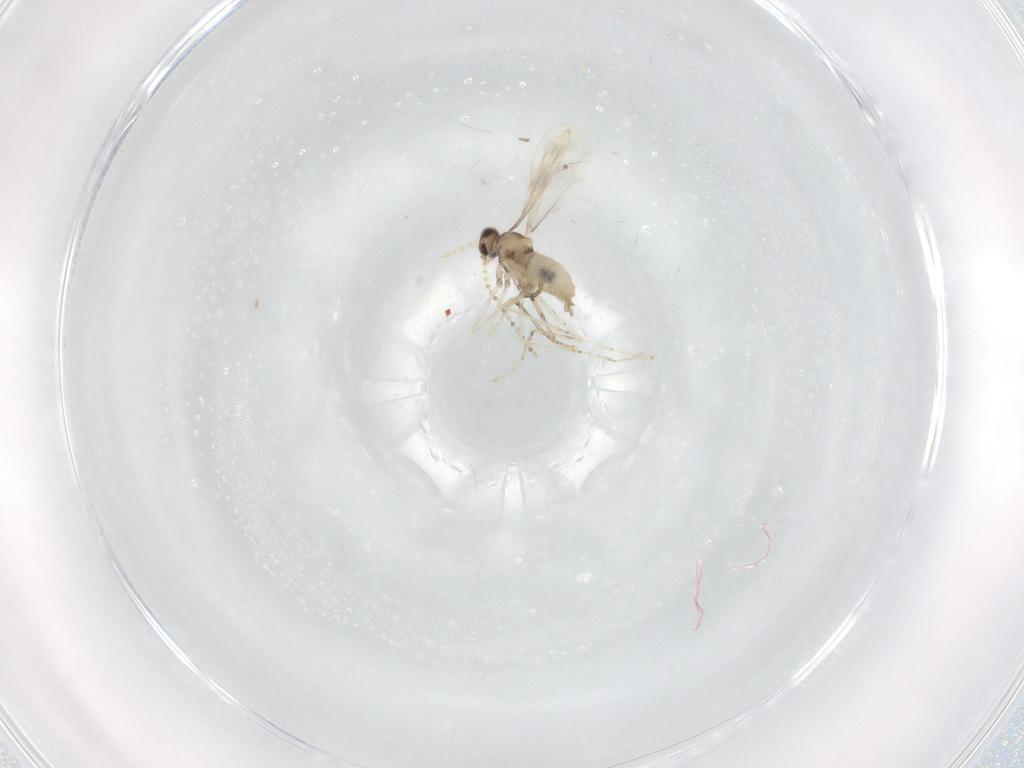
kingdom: Animalia
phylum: Arthropoda
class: Insecta
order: Diptera
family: Cecidomyiidae
